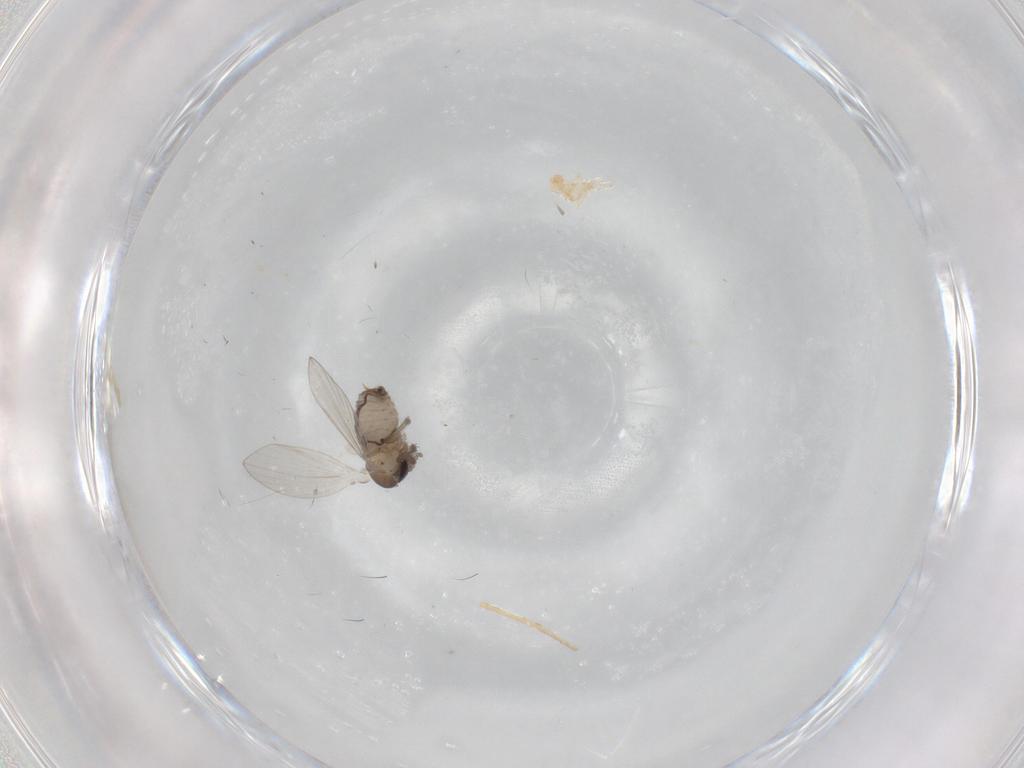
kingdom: Animalia
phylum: Arthropoda
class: Insecta
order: Diptera
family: Psychodidae
